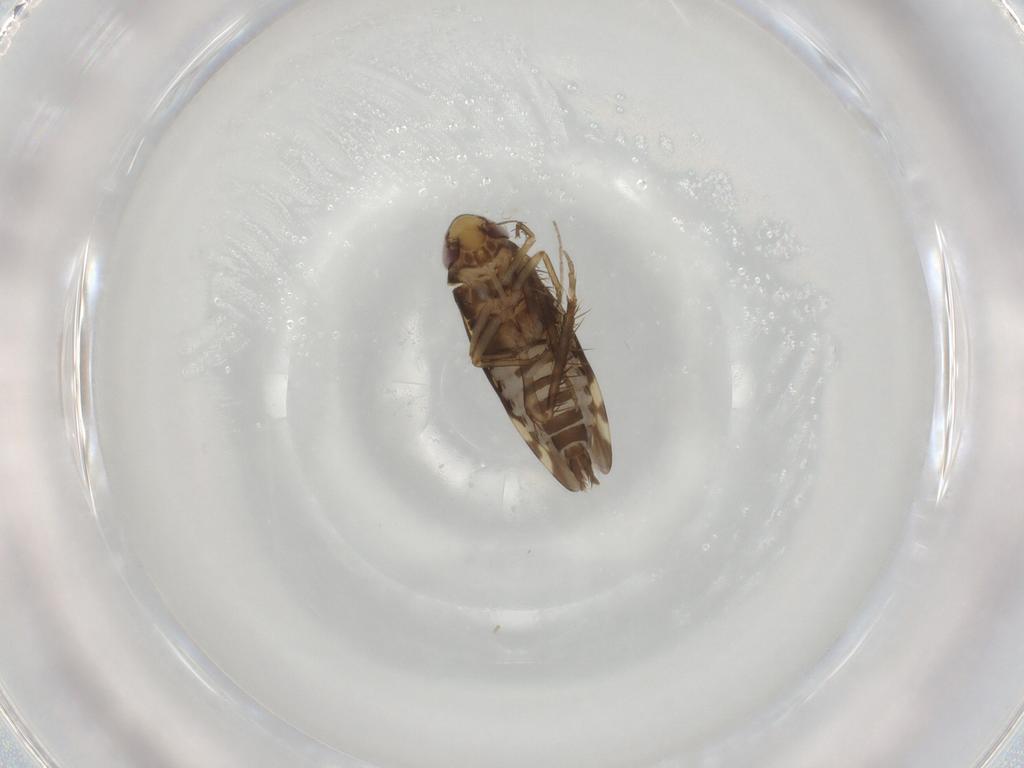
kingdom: Animalia
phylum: Arthropoda
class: Insecta
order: Hemiptera
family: Cicadellidae
